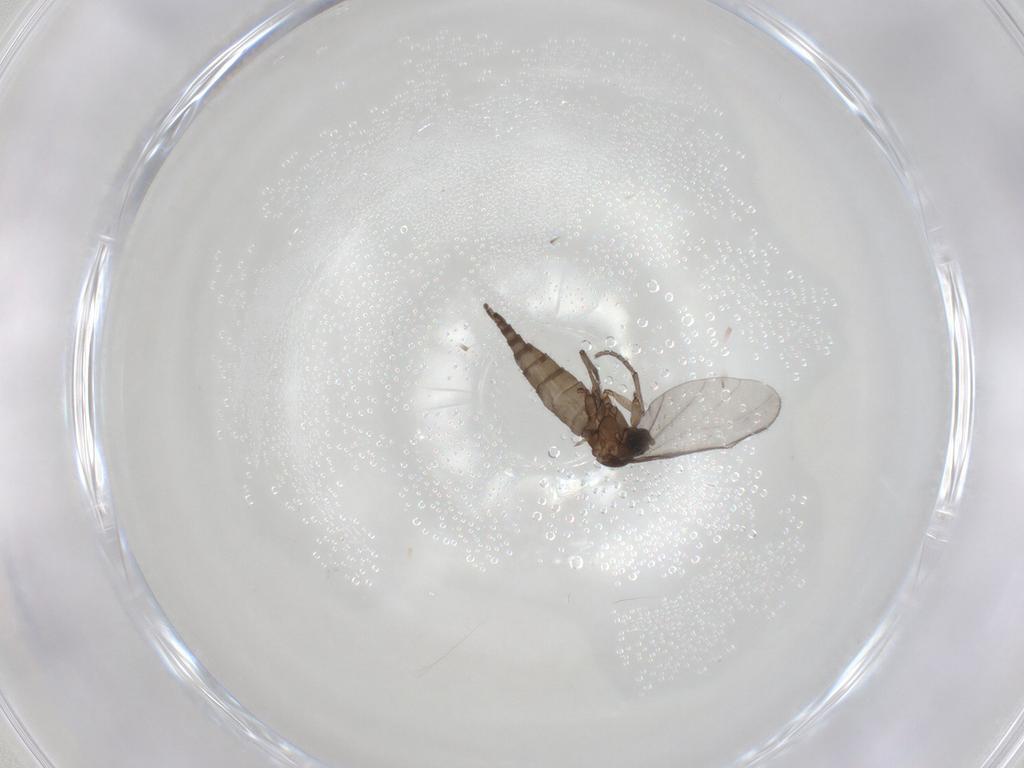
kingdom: Animalia
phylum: Arthropoda
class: Insecta
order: Diptera
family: Sciaridae
